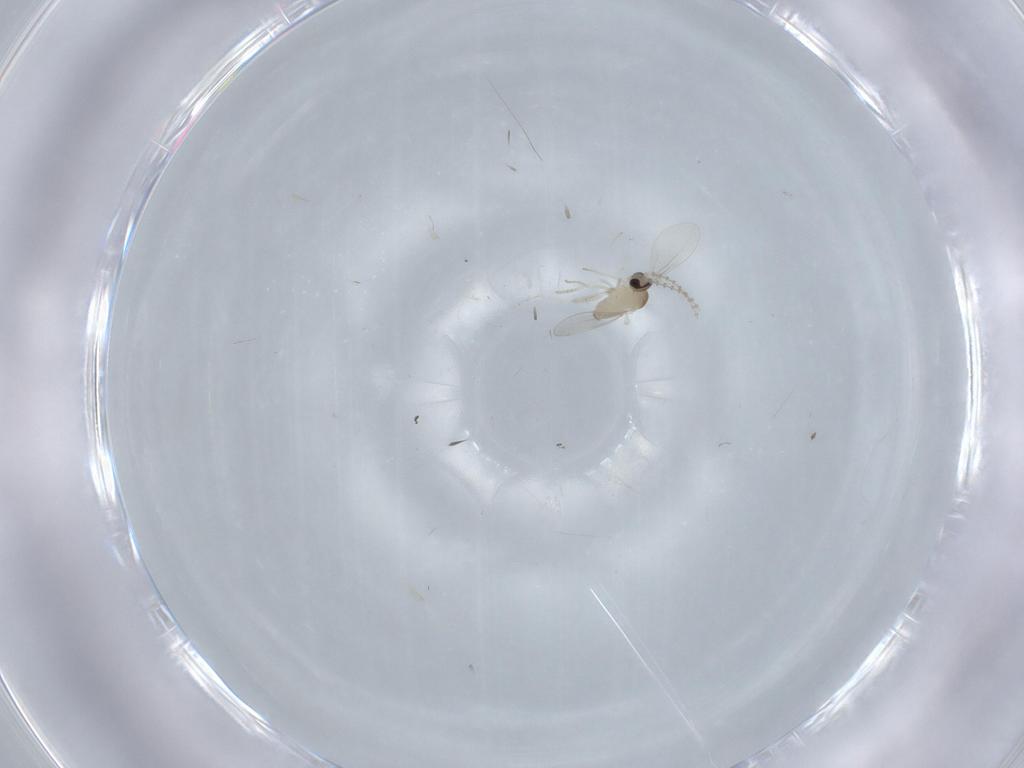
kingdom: Animalia
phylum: Arthropoda
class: Insecta
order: Diptera
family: Cecidomyiidae
